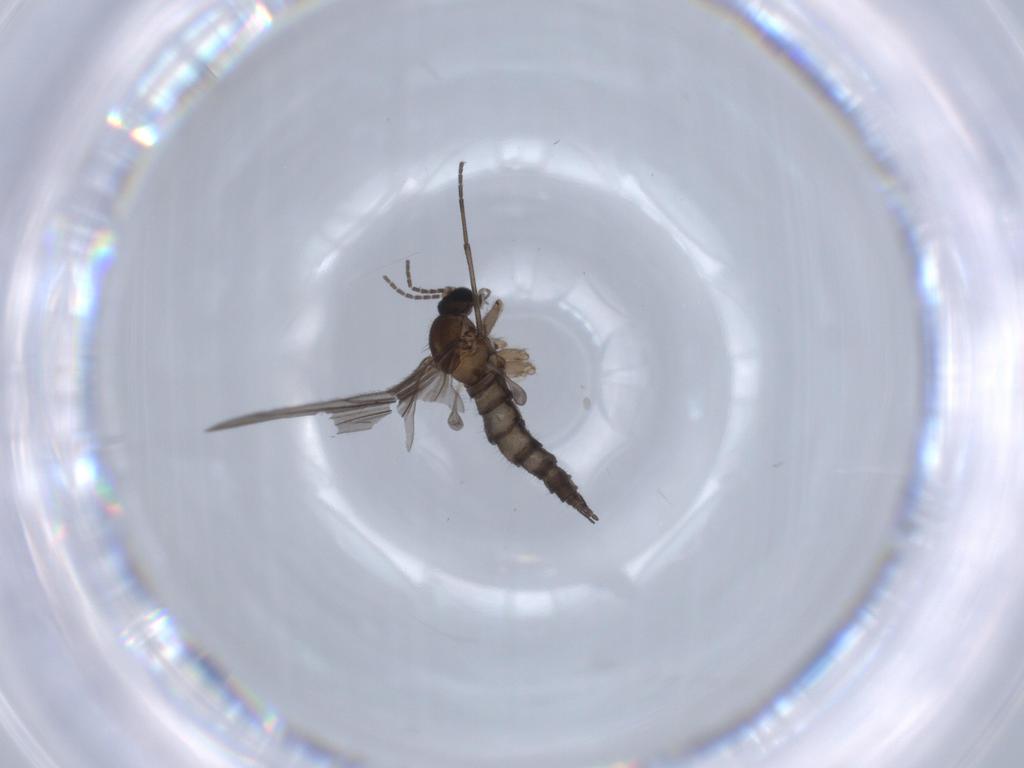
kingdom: Animalia
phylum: Arthropoda
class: Insecta
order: Diptera
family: Sciaridae
